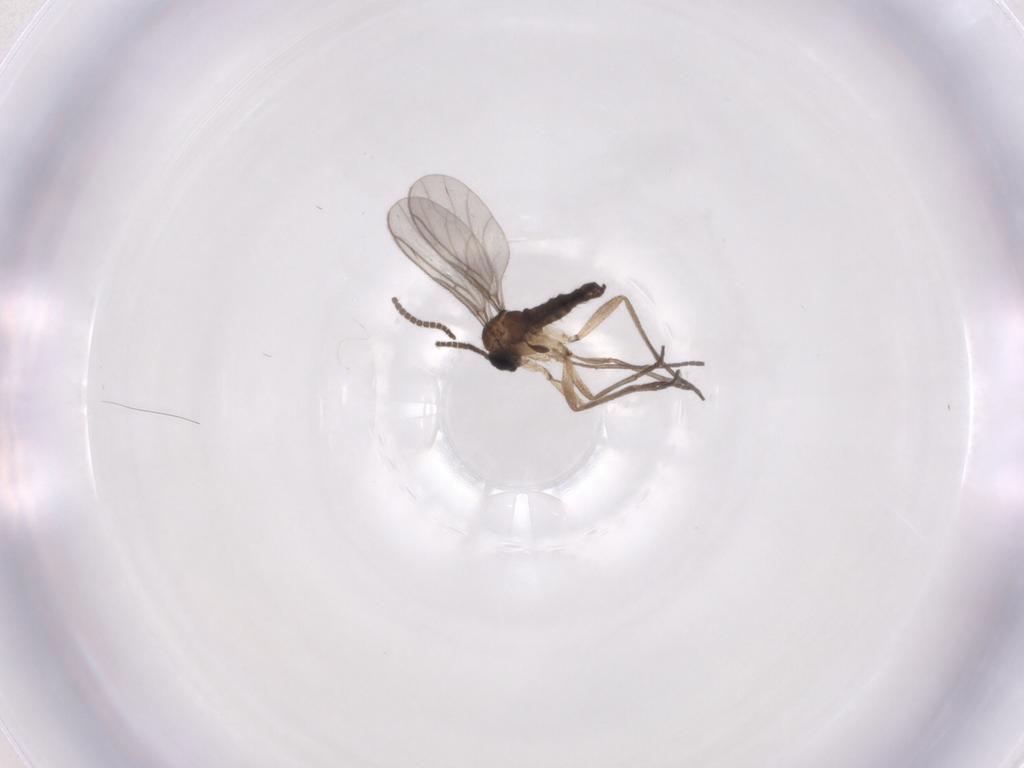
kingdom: Animalia
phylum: Arthropoda
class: Insecta
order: Diptera
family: Sciaridae
